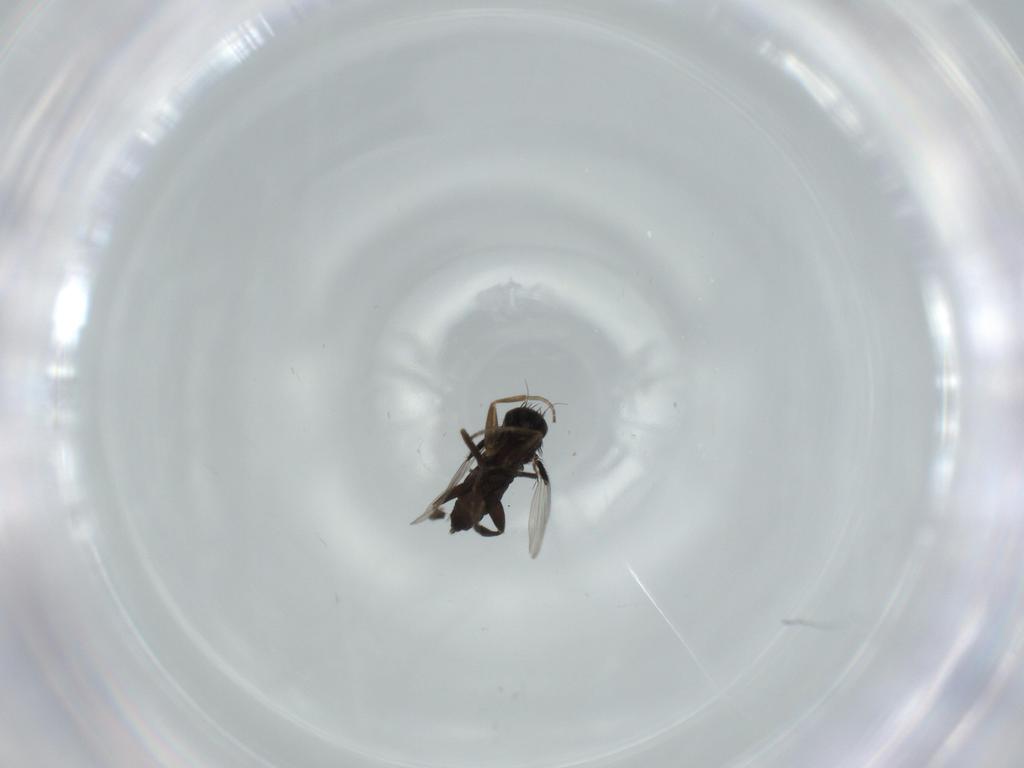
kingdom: Animalia
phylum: Arthropoda
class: Insecta
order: Diptera
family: Phoridae
